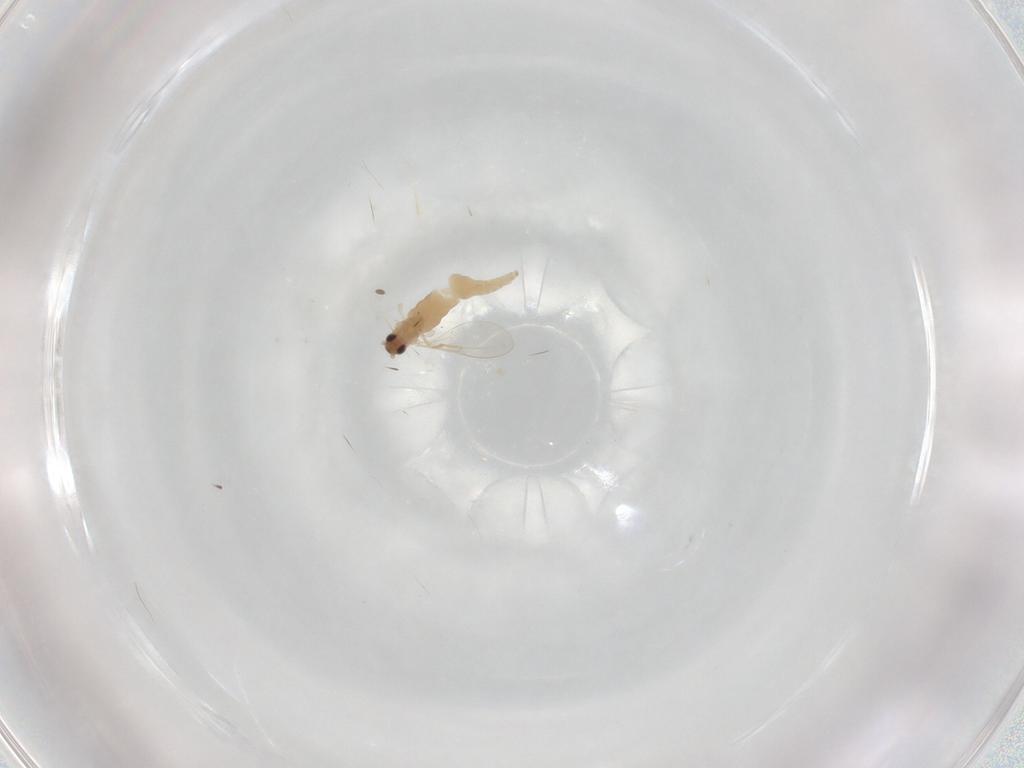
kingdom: Animalia
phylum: Arthropoda
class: Insecta
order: Diptera
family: Cecidomyiidae
